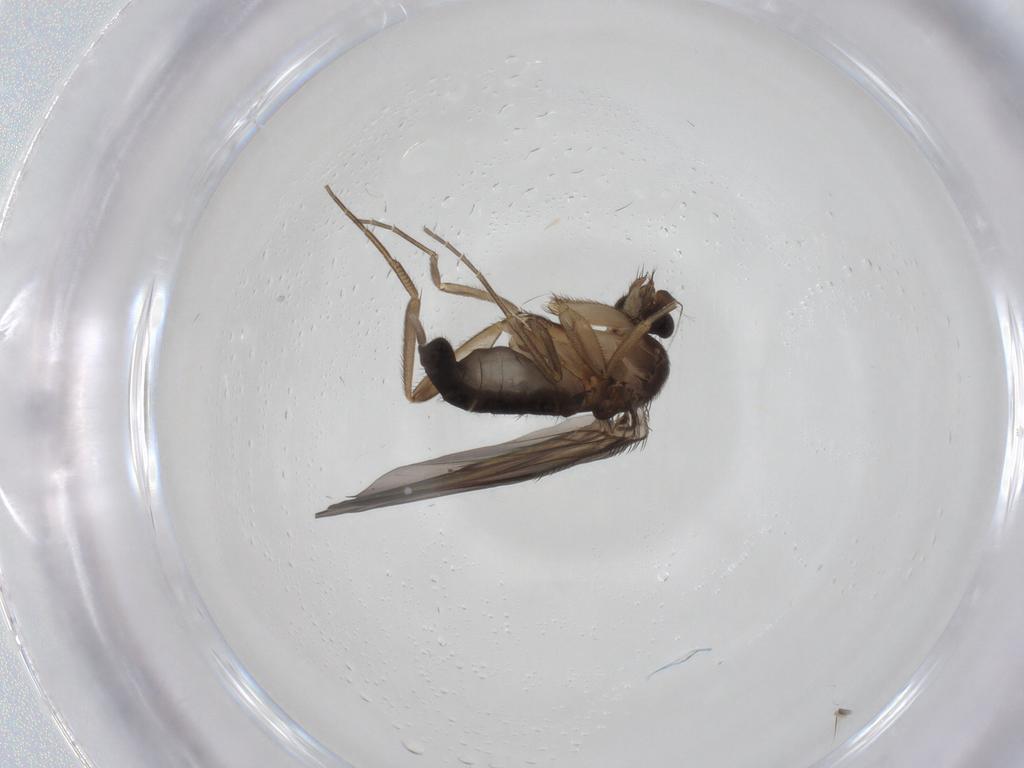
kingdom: Animalia
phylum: Arthropoda
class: Insecta
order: Diptera
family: Phoridae
